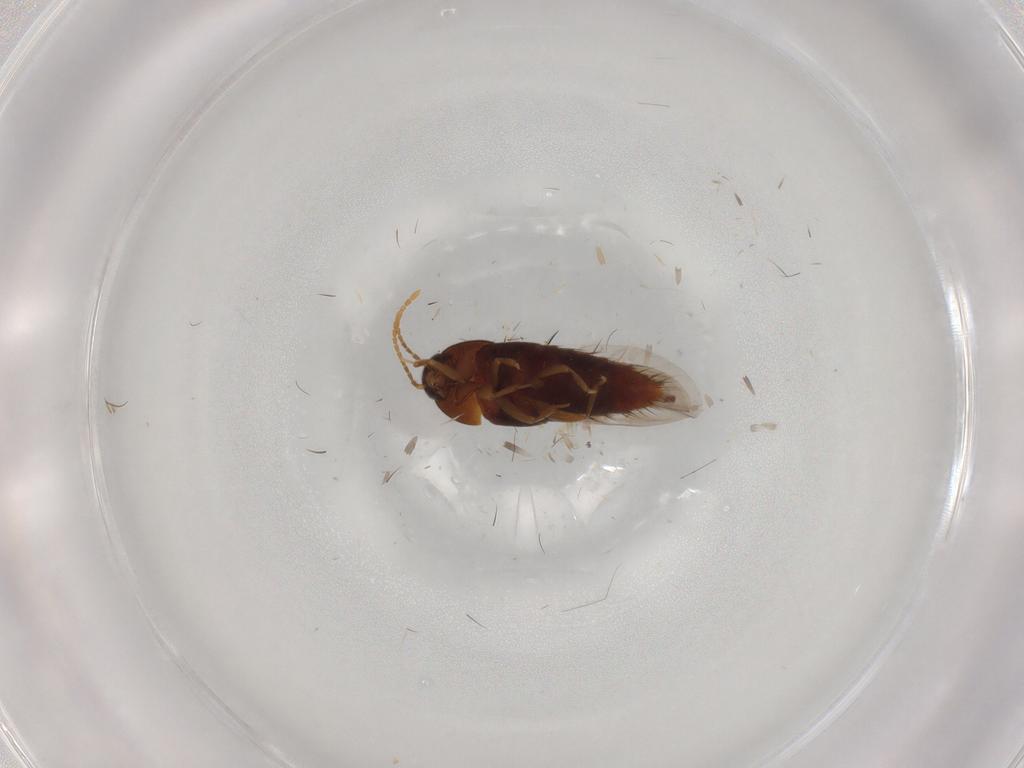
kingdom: Animalia
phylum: Arthropoda
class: Insecta
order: Coleoptera
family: Staphylinidae
